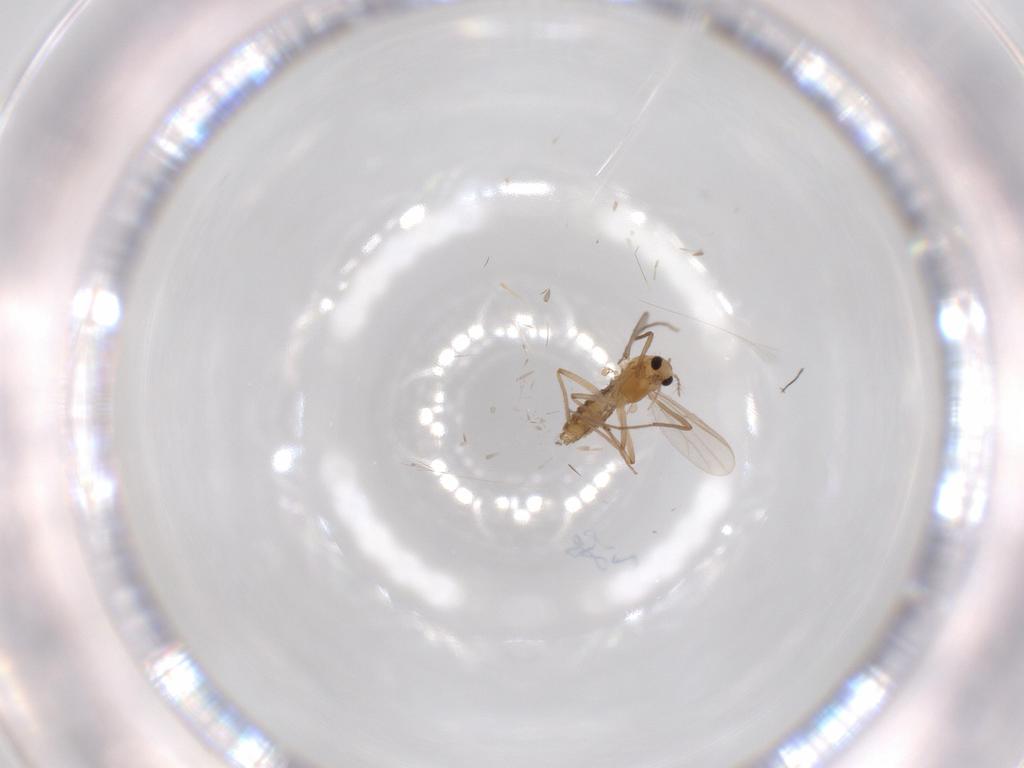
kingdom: Animalia
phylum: Arthropoda
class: Insecta
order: Diptera
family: Chironomidae
